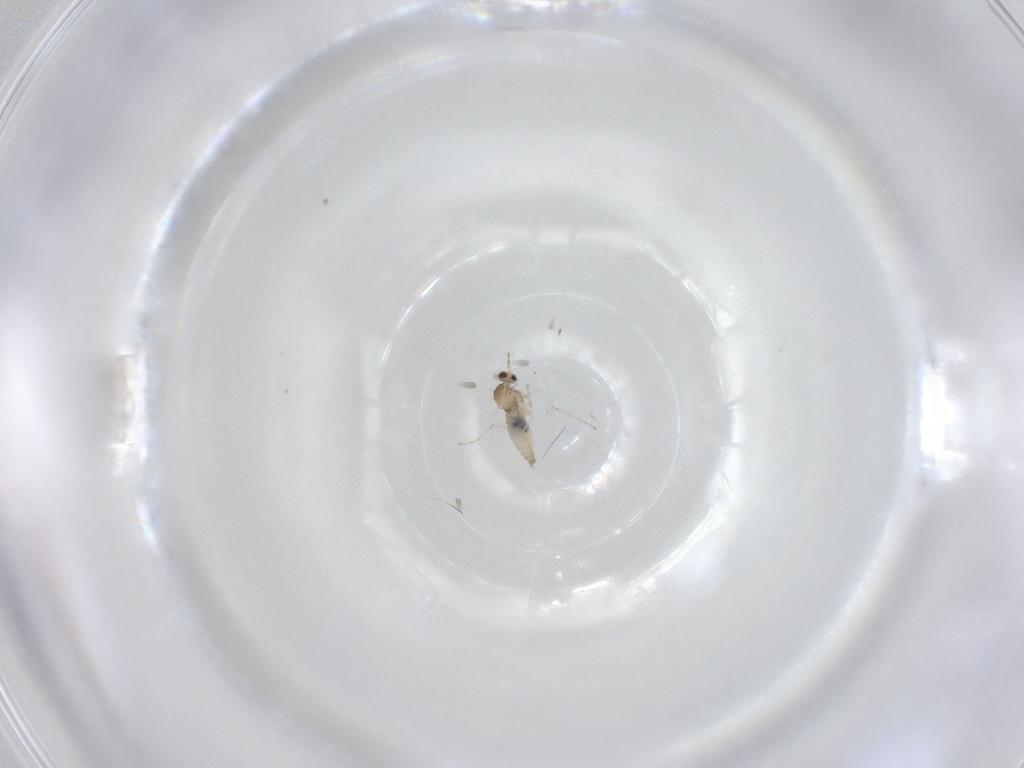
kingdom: Animalia
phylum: Arthropoda
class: Insecta
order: Diptera
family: Cecidomyiidae
